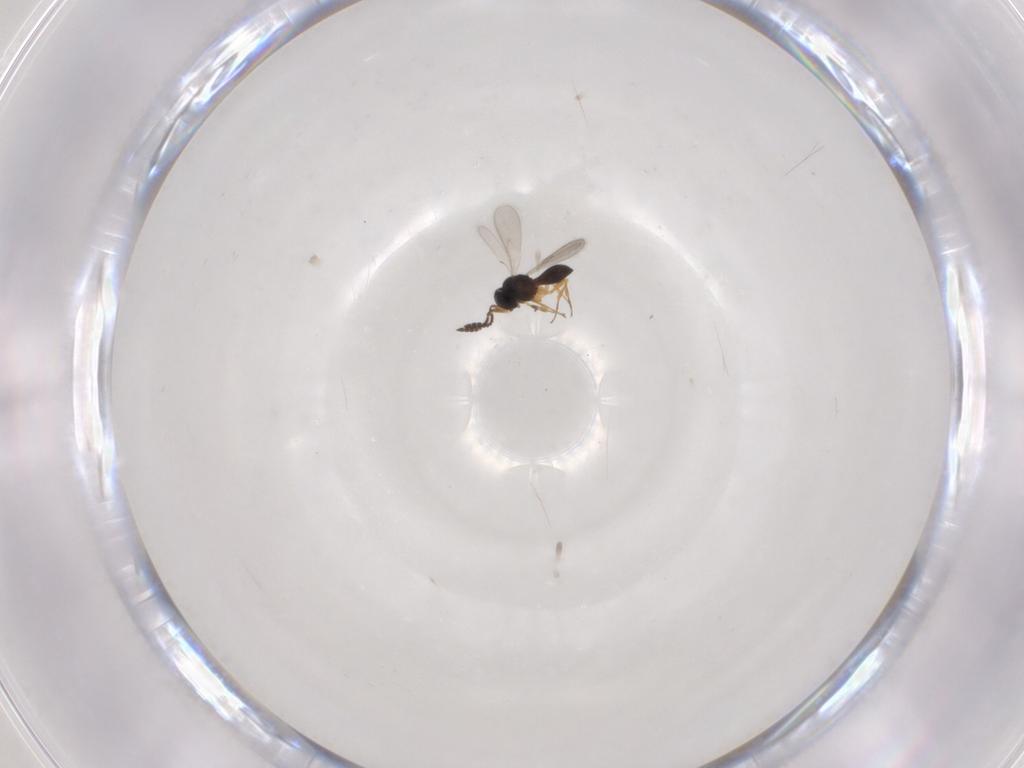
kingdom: Animalia
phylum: Arthropoda
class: Insecta
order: Hymenoptera
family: Scelionidae
